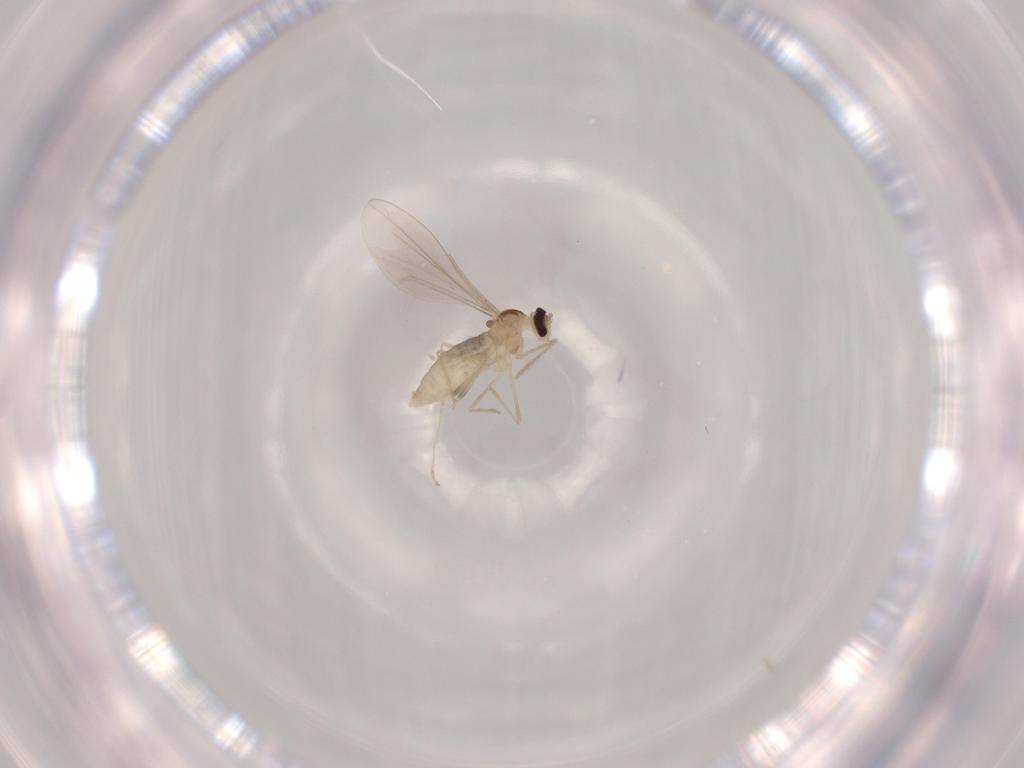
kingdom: Animalia
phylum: Arthropoda
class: Insecta
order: Diptera
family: Cecidomyiidae
